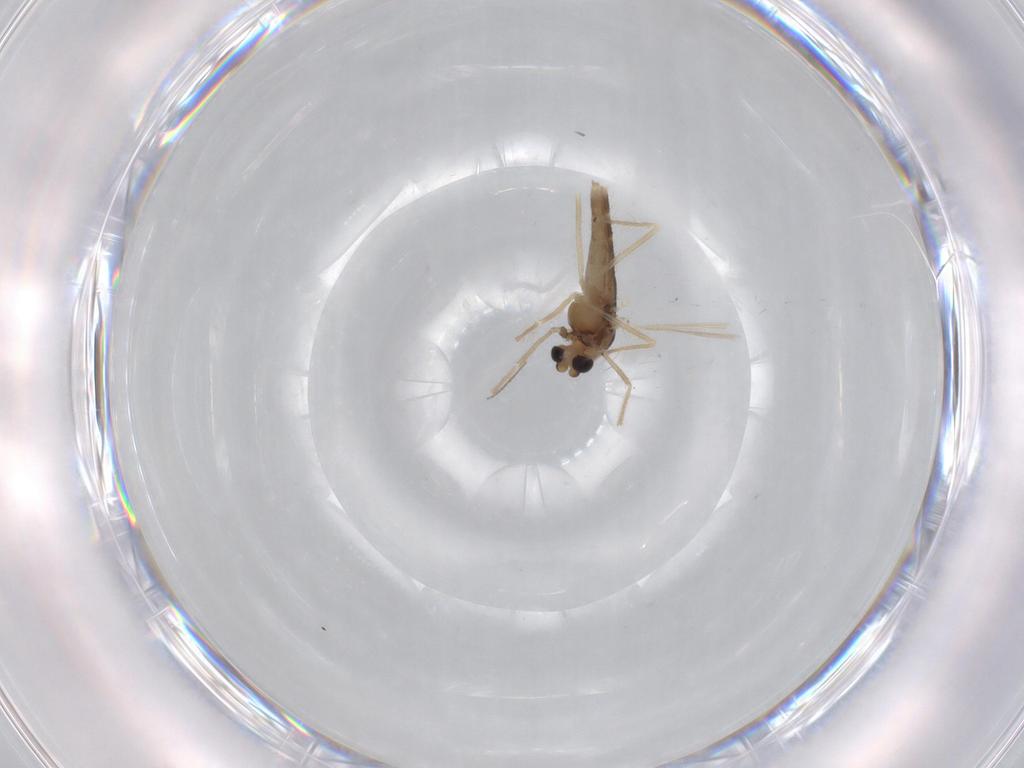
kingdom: Animalia
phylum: Arthropoda
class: Insecta
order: Diptera
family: Chironomidae
